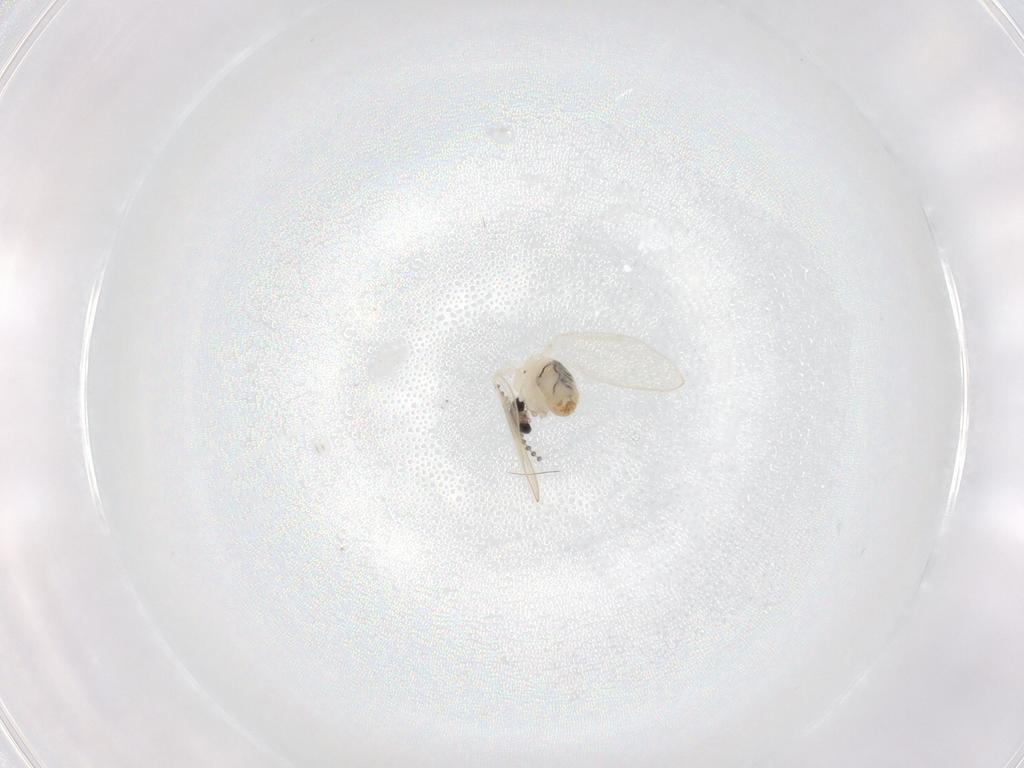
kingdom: Animalia
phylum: Arthropoda
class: Insecta
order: Diptera
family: Psychodidae
